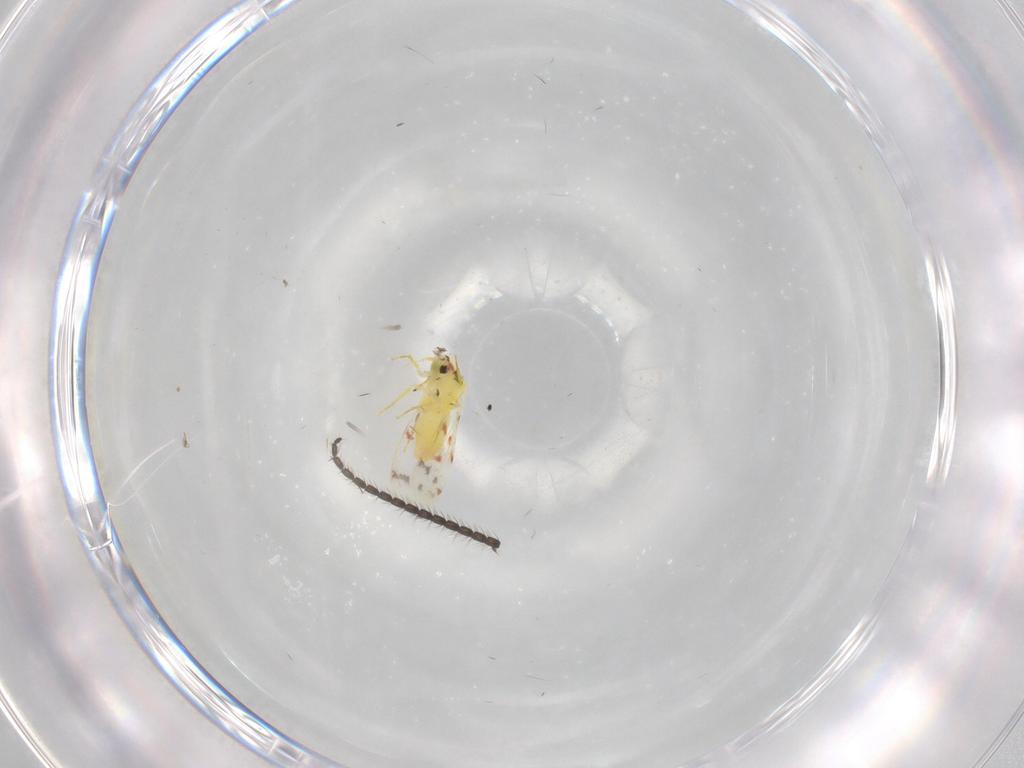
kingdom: Animalia
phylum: Arthropoda
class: Insecta
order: Hemiptera
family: Aleyrodidae
